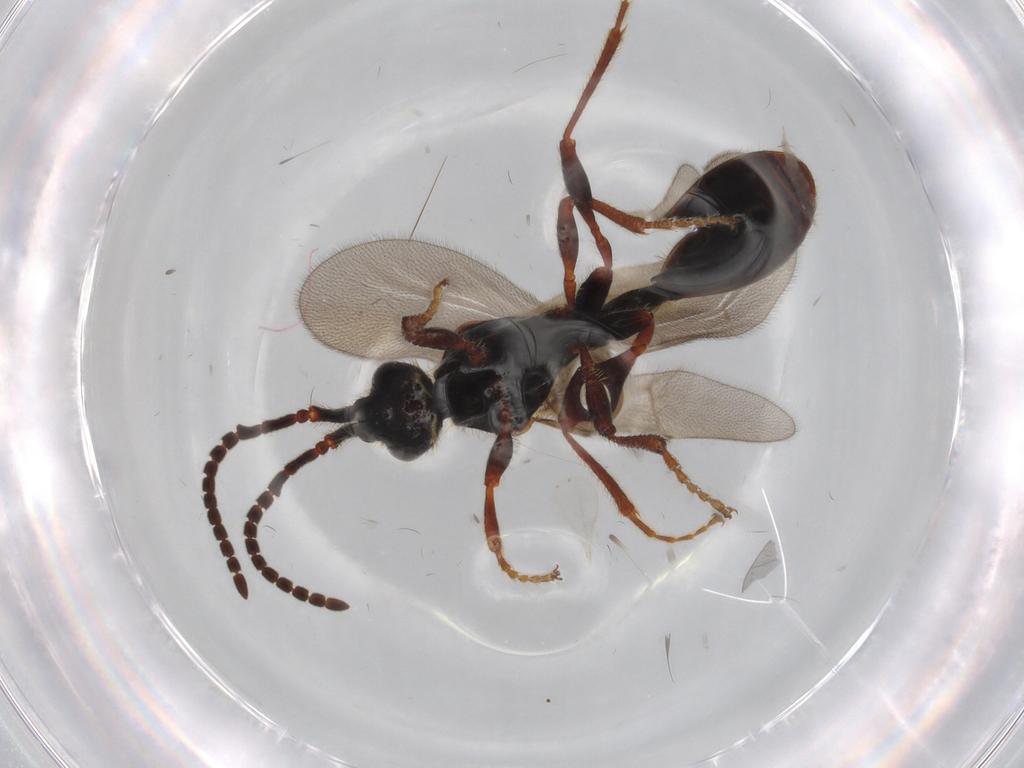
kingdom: Animalia
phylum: Arthropoda
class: Insecta
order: Hymenoptera
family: Diapriidae
